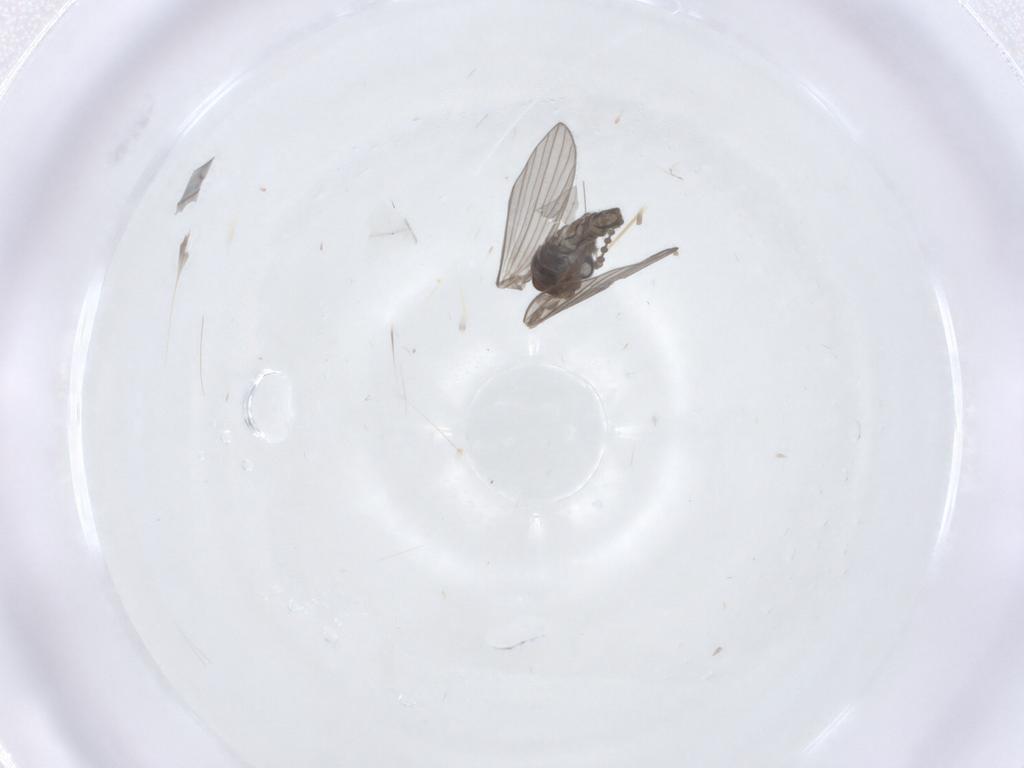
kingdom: Animalia
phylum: Arthropoda
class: Insecta
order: Diptera
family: Psychodidae
